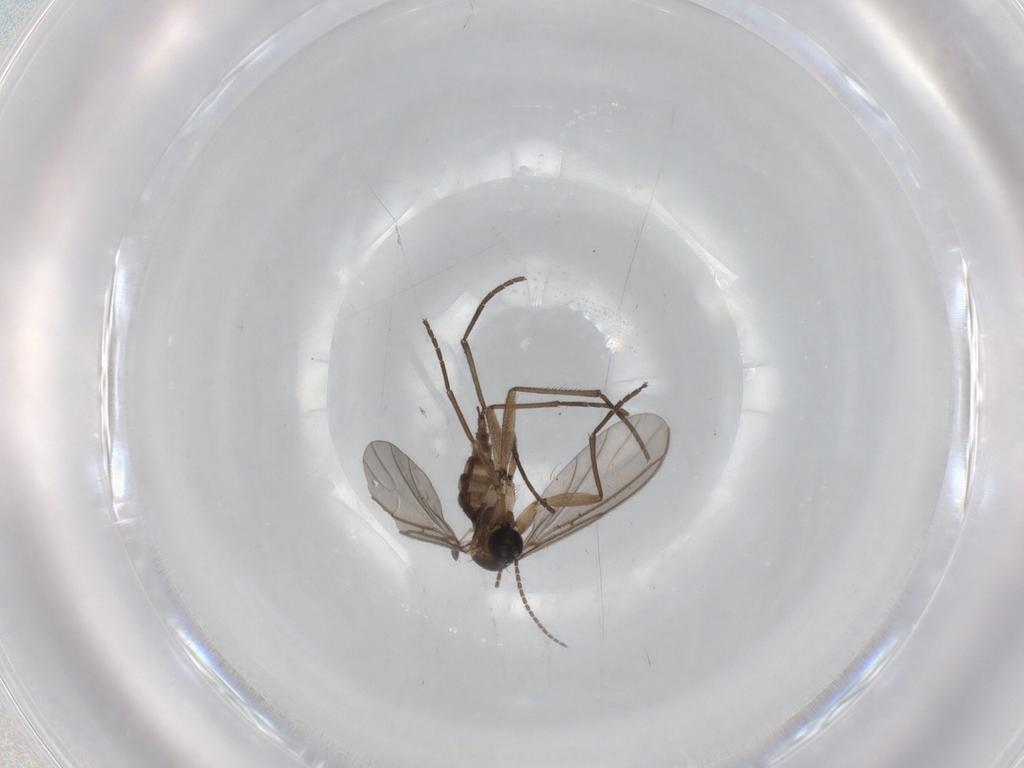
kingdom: Animalia
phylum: Arthropoda
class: Insecta
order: Diptera
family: Sciaridae
